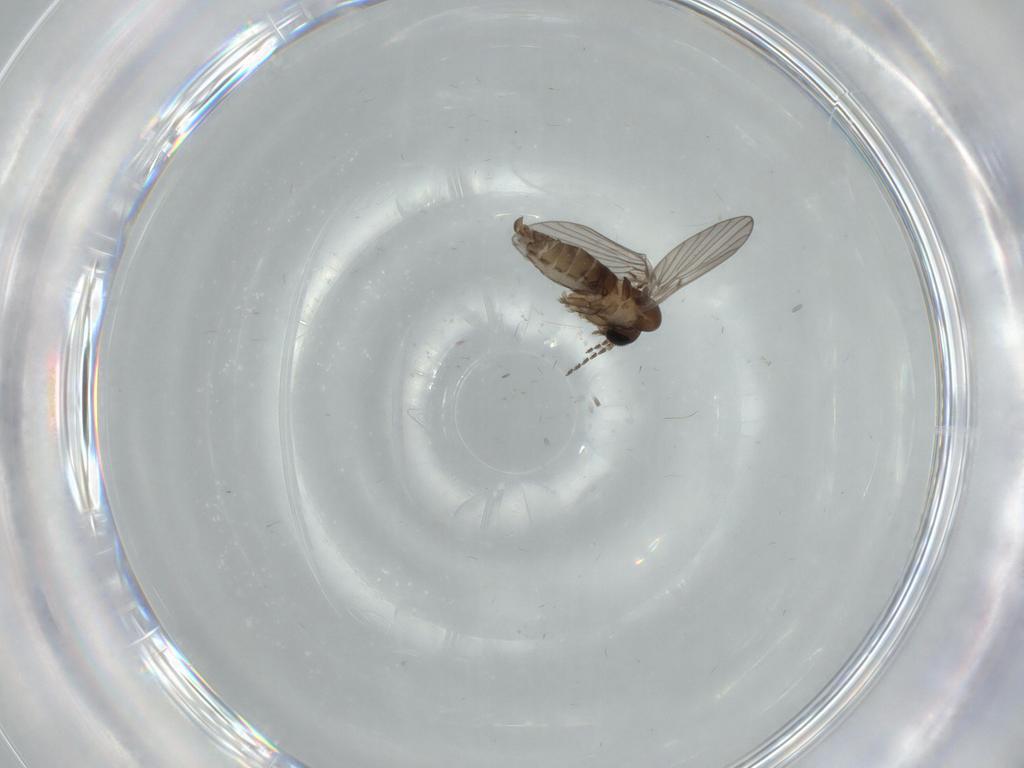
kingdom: Animalia
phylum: Arthropoda
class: Insecta
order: Diptera
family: Psychodidae
